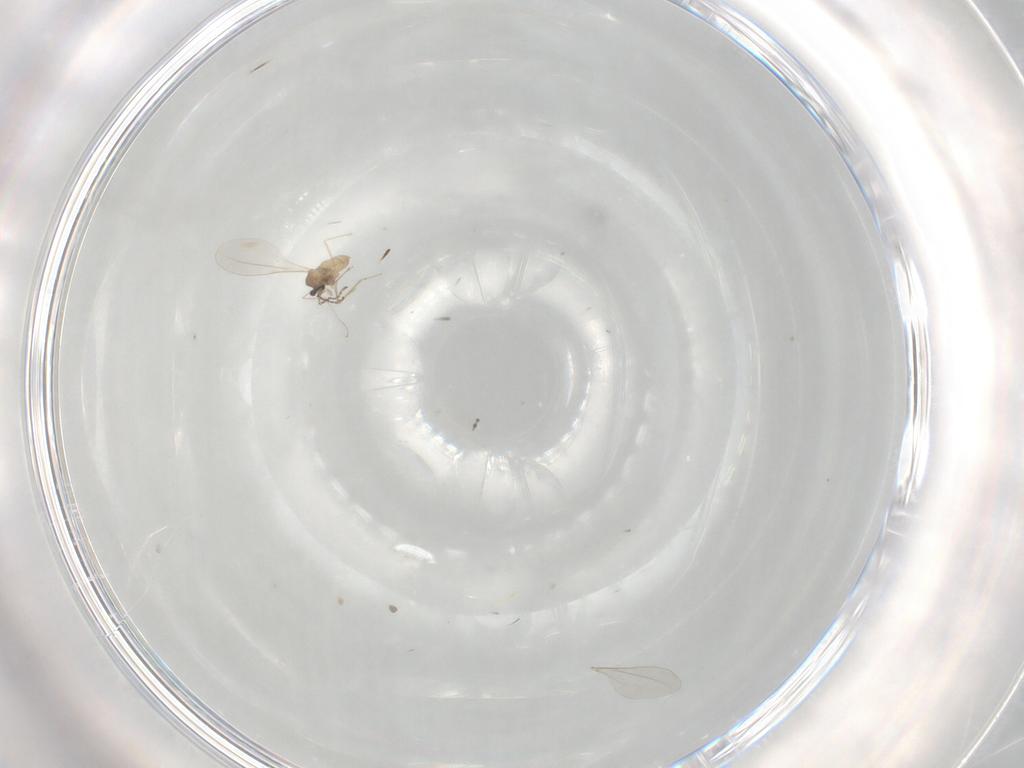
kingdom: Animalia
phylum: Arthropoda
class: Insecta
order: Diptera
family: Cecidomyiidae
